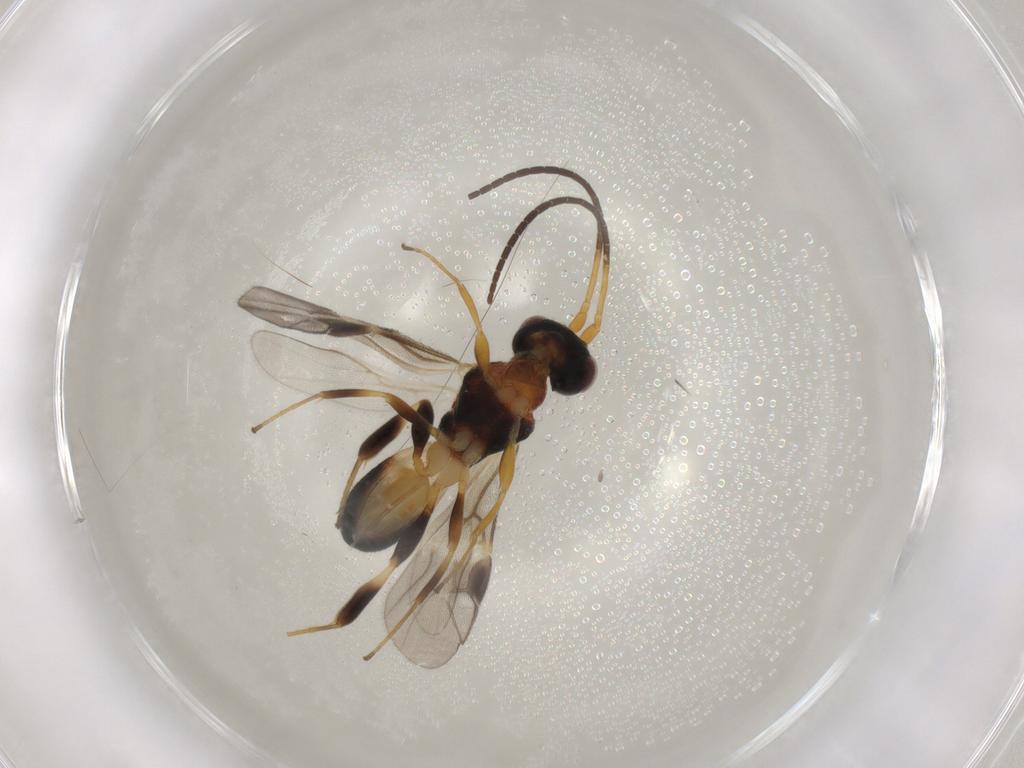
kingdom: Animalia
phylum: Arthropoda
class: Insecta
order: Hymenoptera
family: Braconidae
